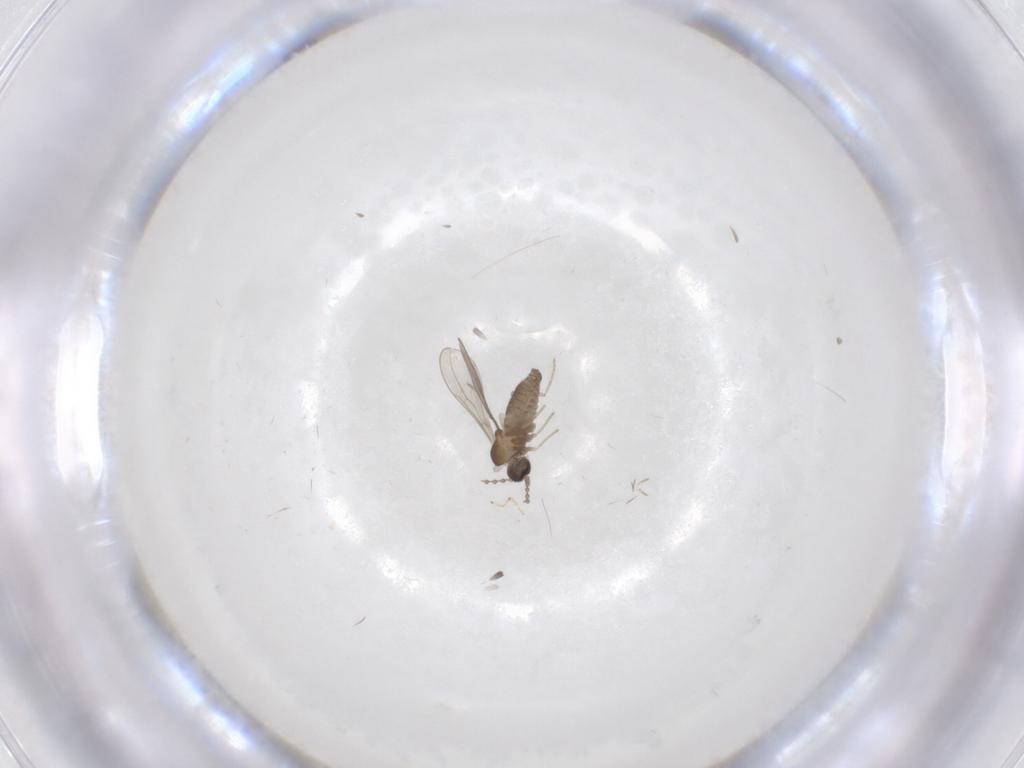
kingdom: Animalia
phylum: Arthropoda
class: Insecta
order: Diptera
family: Cecidomyiidae
